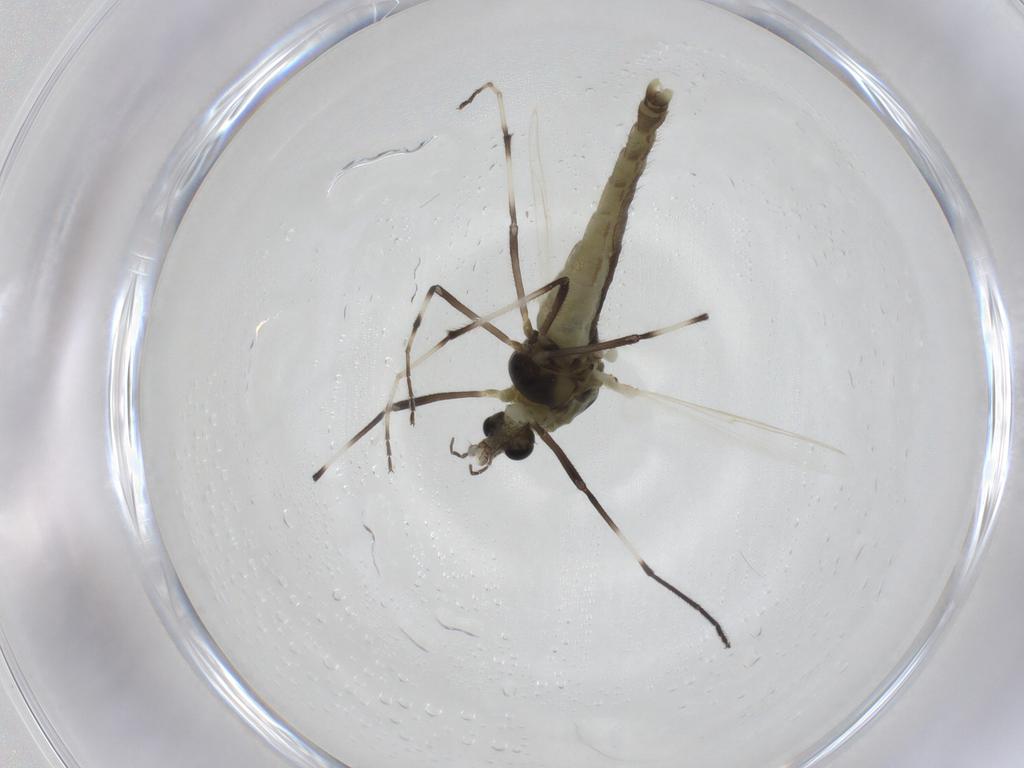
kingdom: Animalia
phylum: Arthropoda
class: Insecta
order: Diptera
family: Chironomidae
